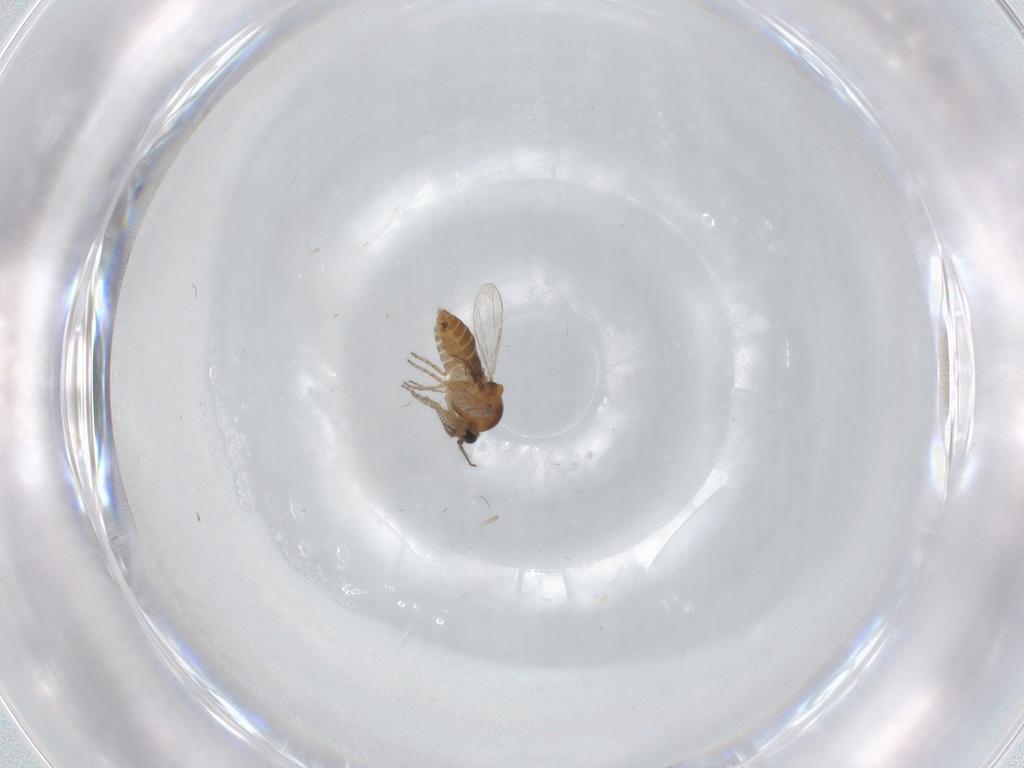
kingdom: Animalia
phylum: Arthropoda
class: Insecta
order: Diptera
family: Ceratopogonidae
